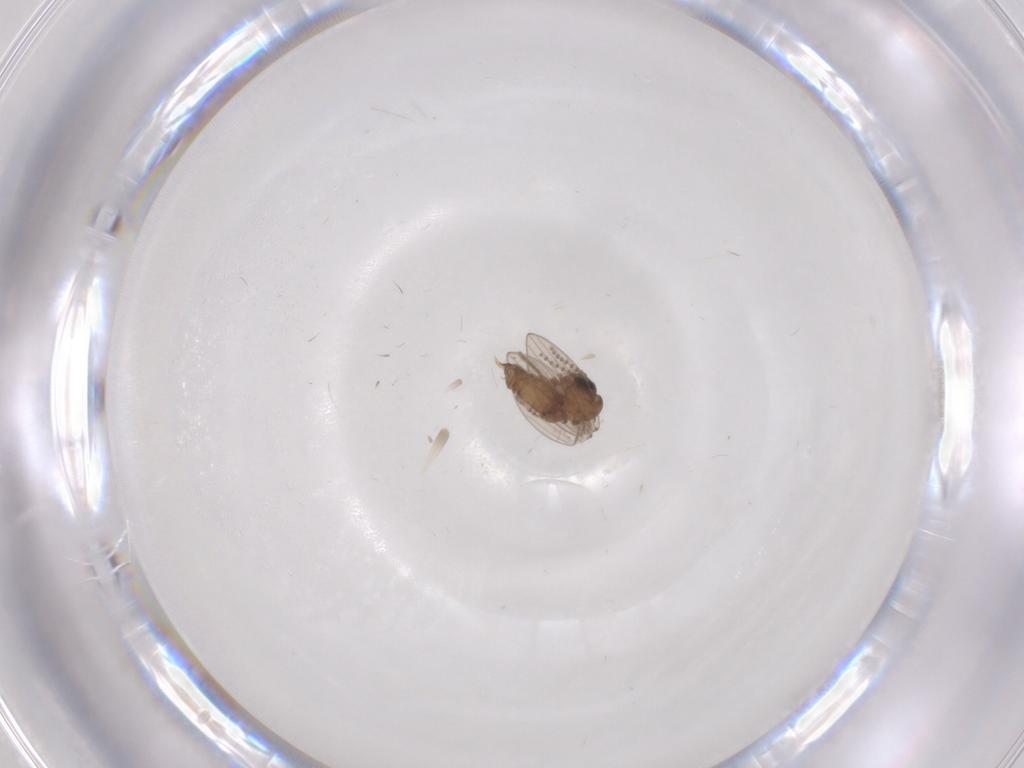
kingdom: Animalia
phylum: Arthropoda
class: Insecta
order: Diptera
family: Psychodidae
